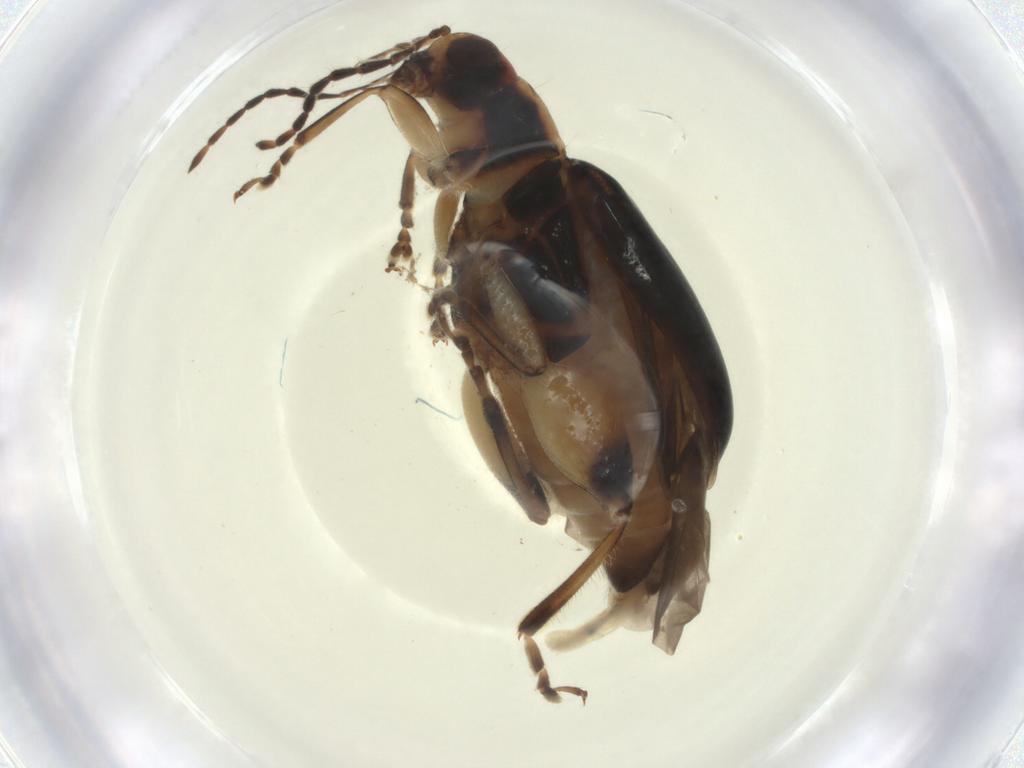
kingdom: Animalia
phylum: Arthropoda
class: Insecta
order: Coleoptera
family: Chrysomelidae
